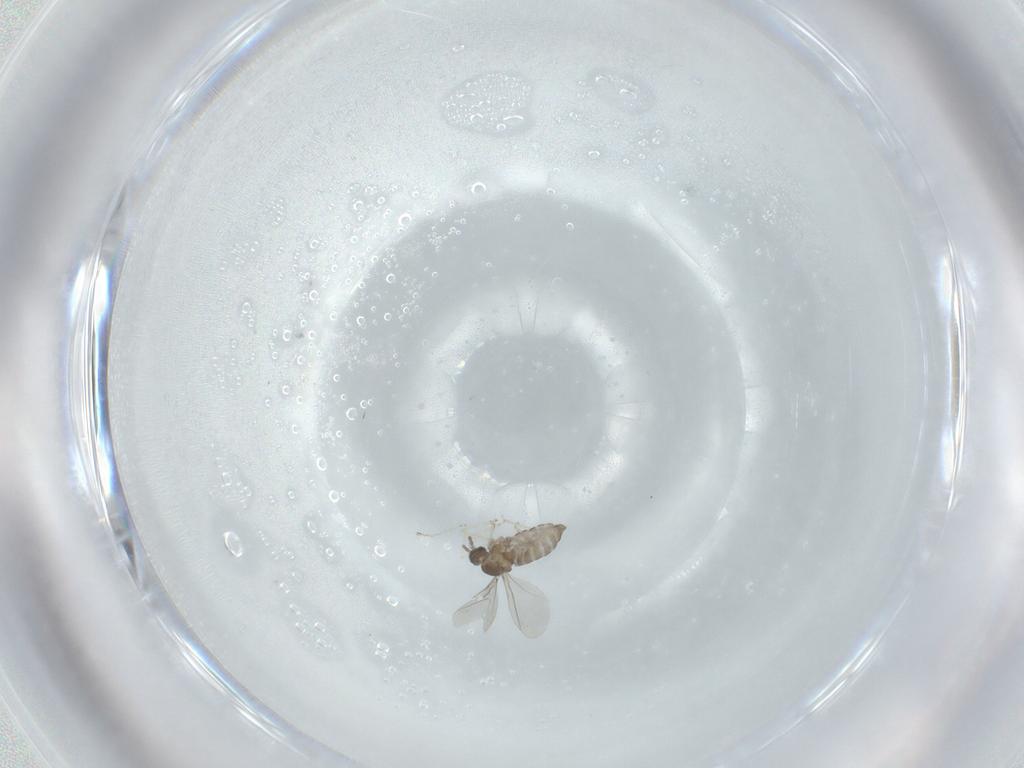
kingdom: Animalia
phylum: Arthropoda
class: Insecta
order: Diptera
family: Cecidomyiidae
